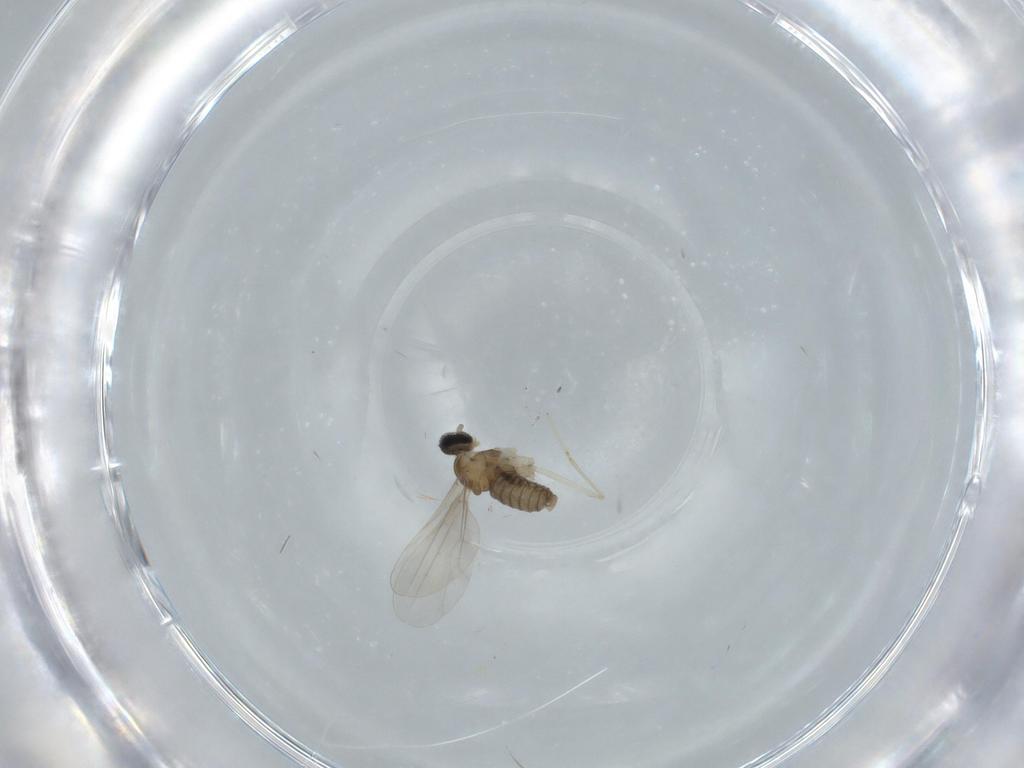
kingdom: Animalia
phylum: Arthropoda
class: Insecta
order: Diptera
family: Cecidomyiidae
